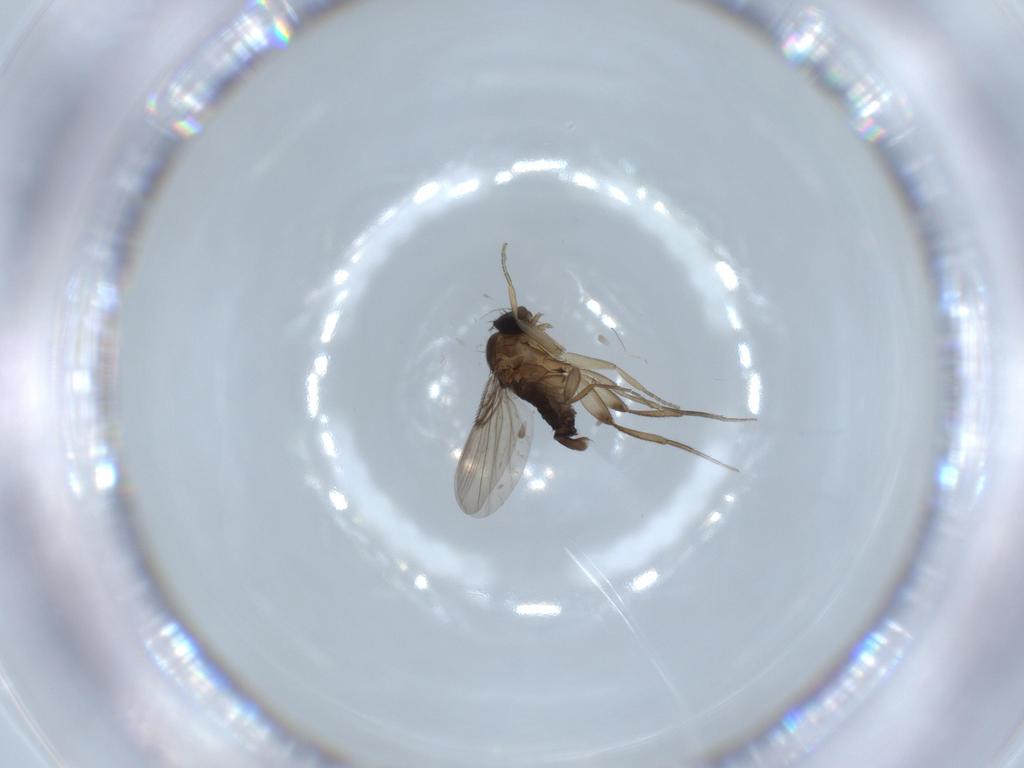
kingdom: Animalia
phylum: Arthropoda
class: Insecta
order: Diptera
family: Phoridae
